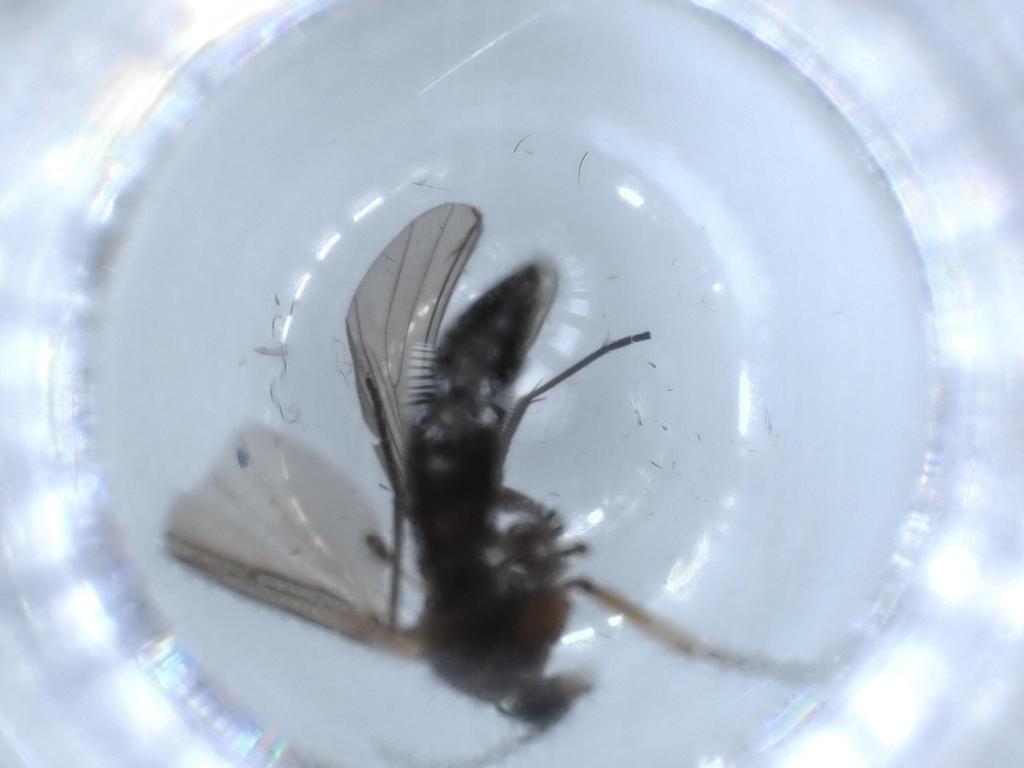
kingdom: Animalia
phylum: Arthropoda
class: Insecta
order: Diptera
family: Sciaridae
